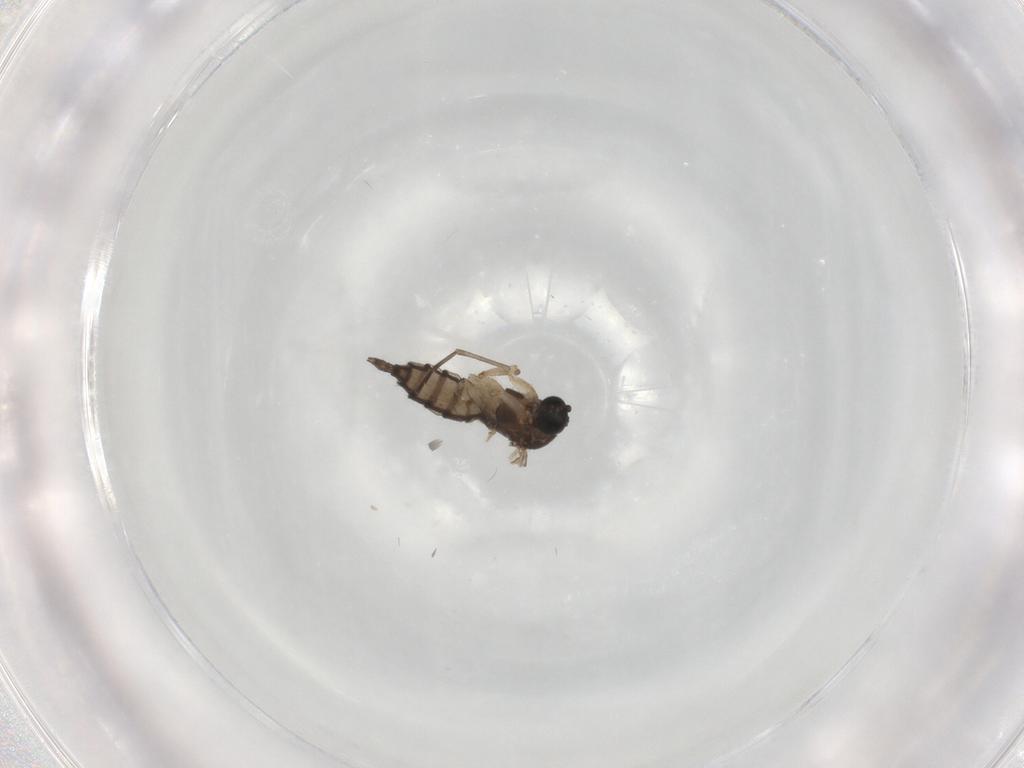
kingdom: Animalia
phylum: Arthropoda
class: Insecta
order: Diptera
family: Sciaridae
